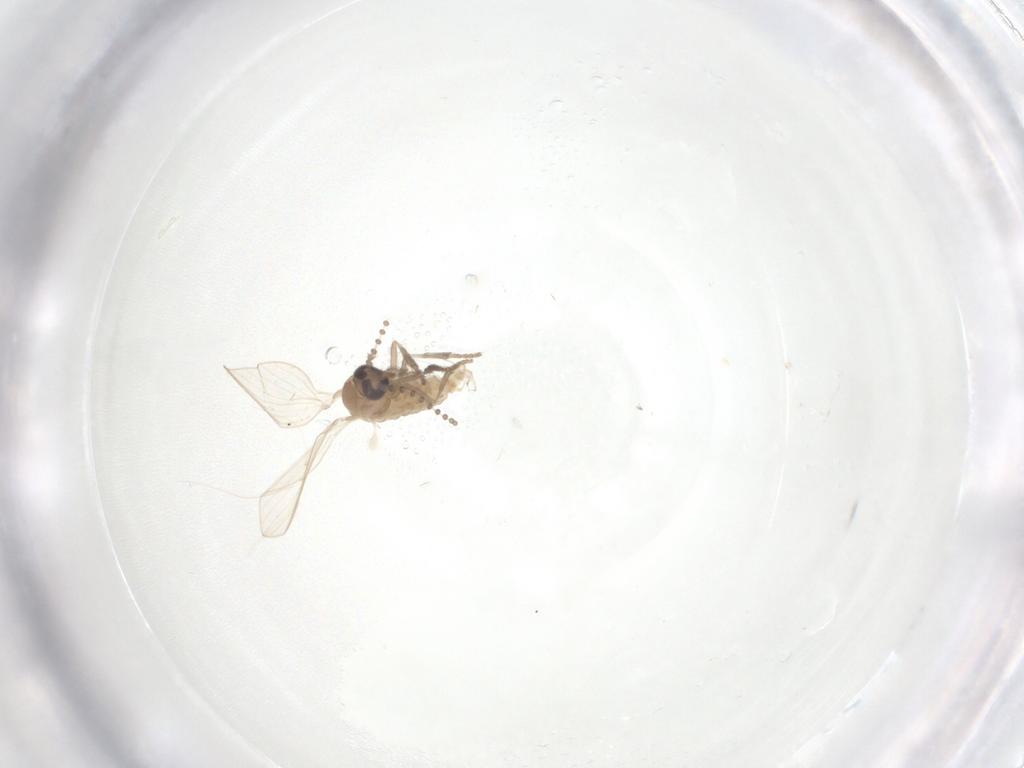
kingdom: Animalia
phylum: Arthropoda
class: Insecta
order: Diptera
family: Psychodidae
